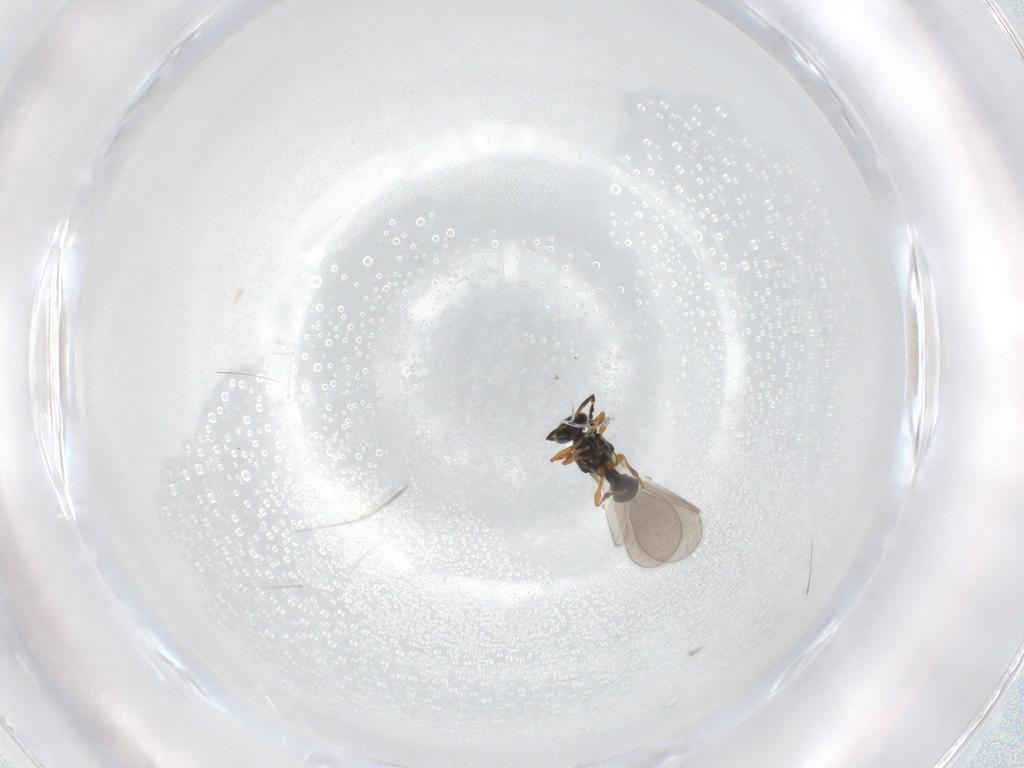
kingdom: Animalia
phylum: Arthropoda
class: Insecta
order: Hymenoptera
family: Platygastridae
